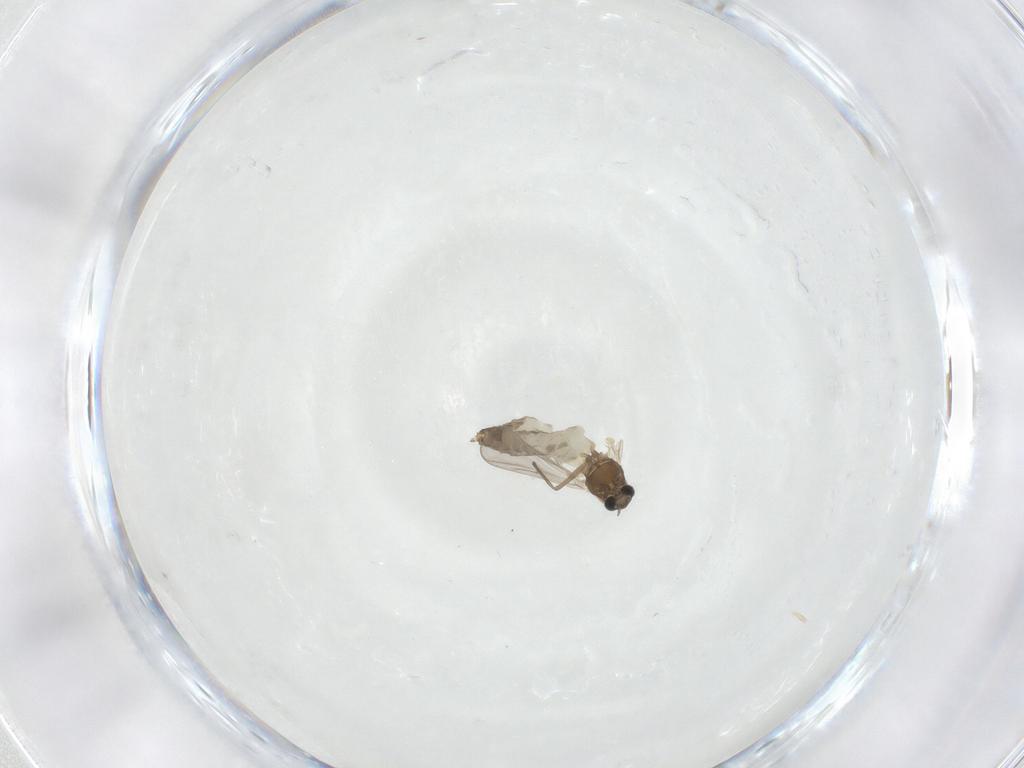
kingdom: Animalia
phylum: Arthropoda
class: Insecta
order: Diptera
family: Chironomidae
